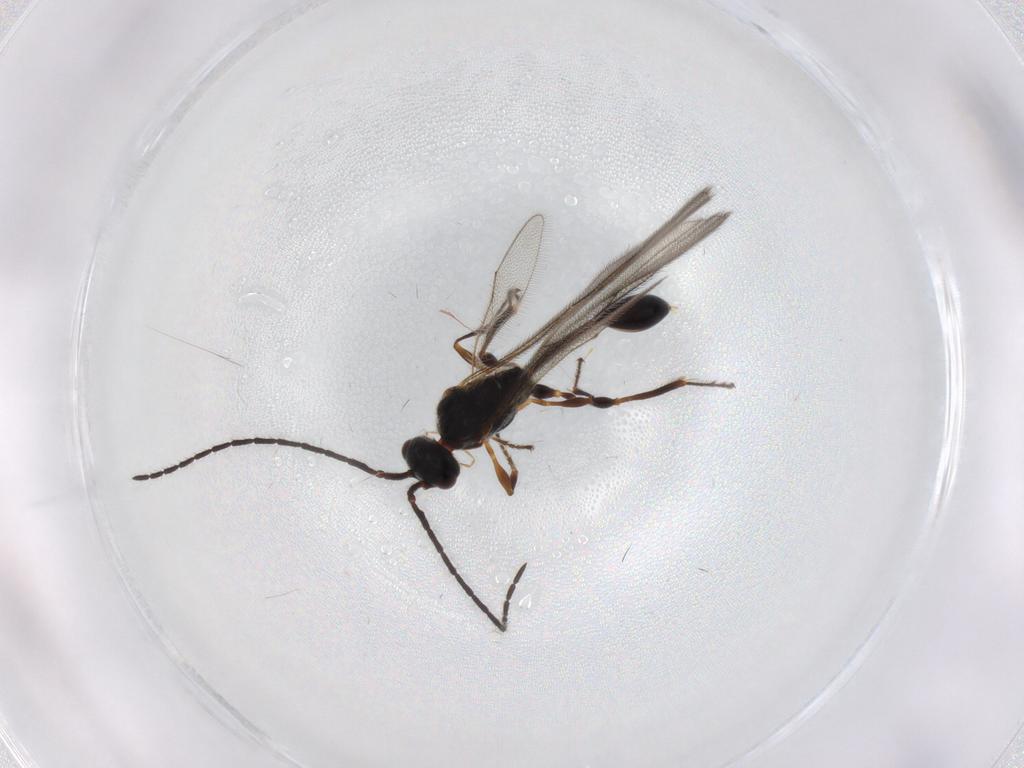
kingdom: Animalia
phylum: Arthropoda
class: Insecta
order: Hymenoptera
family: Diapriidae
